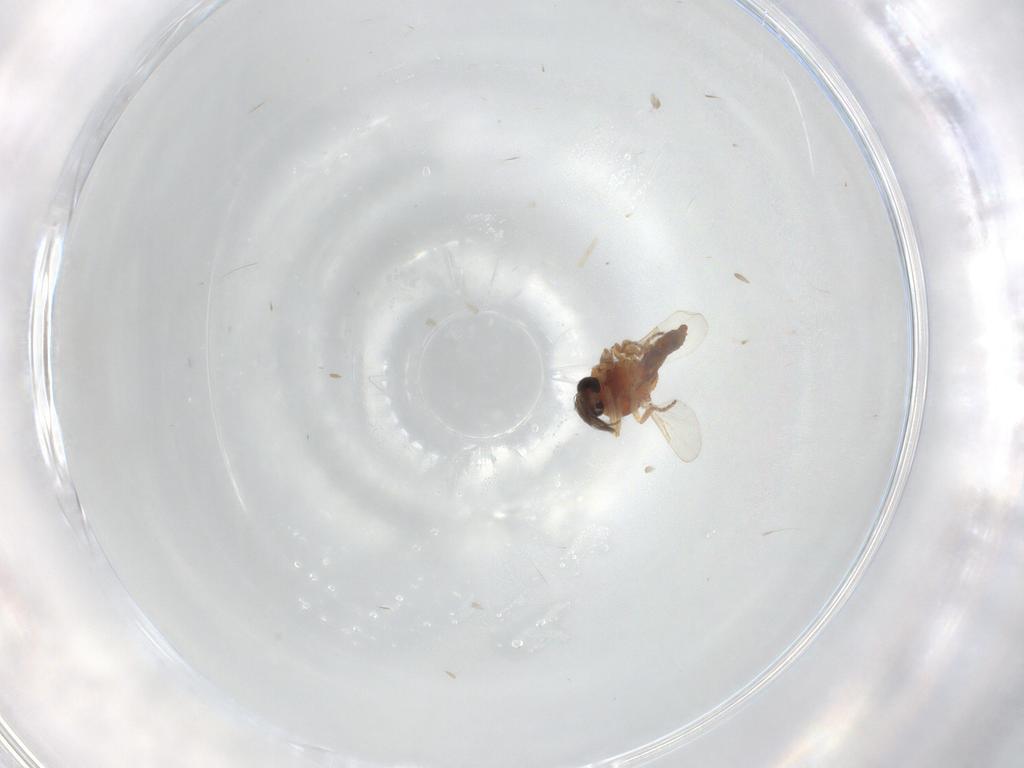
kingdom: Animalia
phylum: Arthropoda
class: Insecta
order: Diptera
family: Ceratopogonidae
